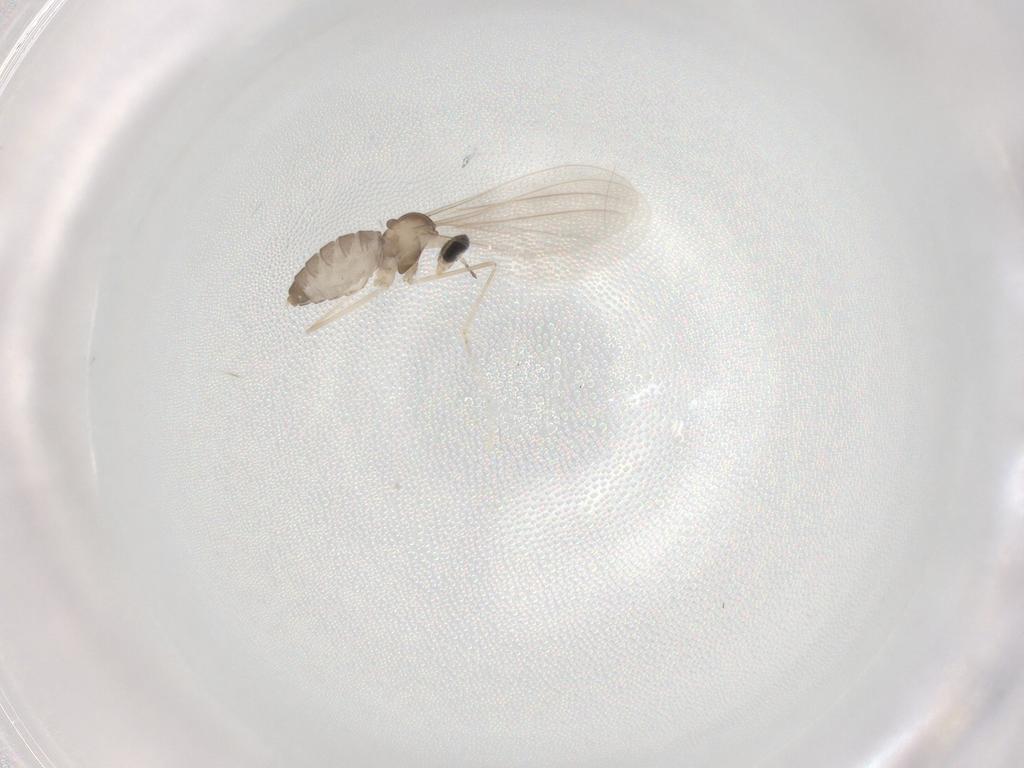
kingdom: Animalia
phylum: Arthropoda
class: Insecta
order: Diptera
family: Cecidomyiidae
